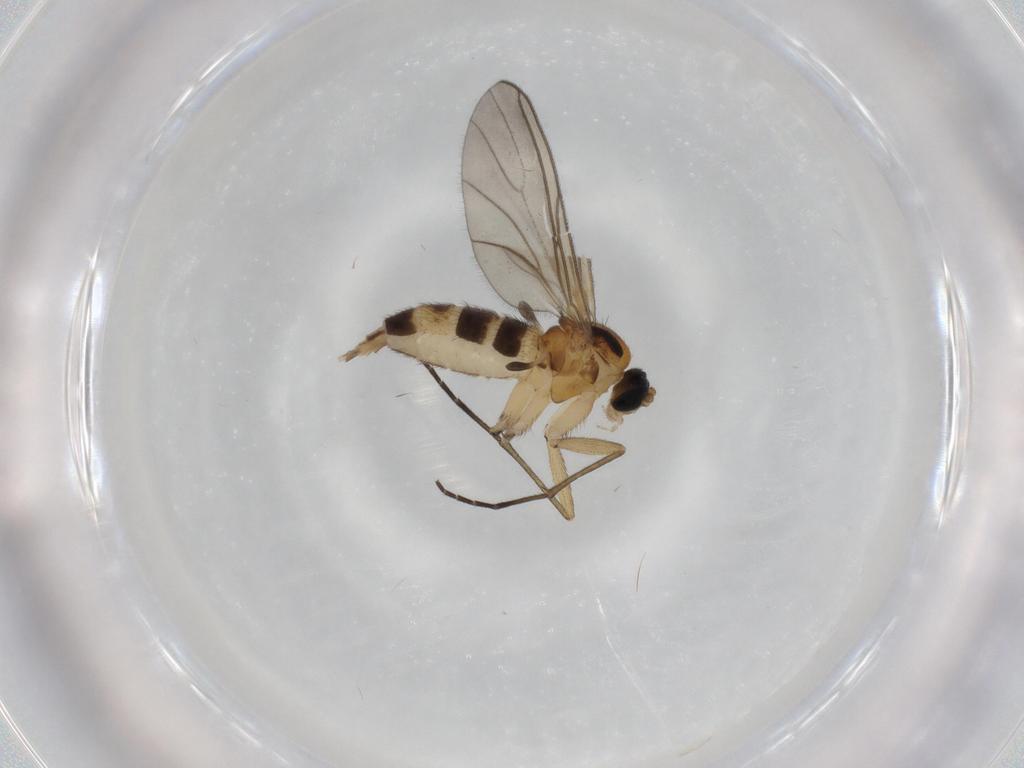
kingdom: Animalia
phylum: Arthropoda
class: Insecta
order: Diptera
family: Sciaridae
